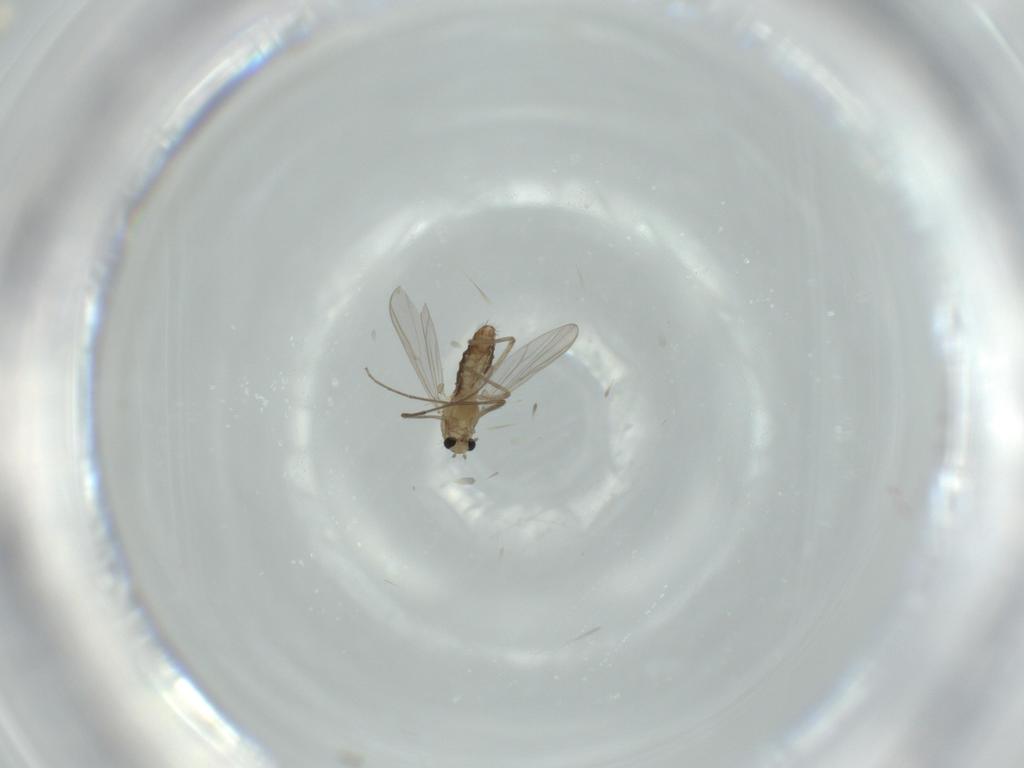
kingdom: Animalia
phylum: Arthropoda
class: Insecta
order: Diptera
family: Chironomidae
